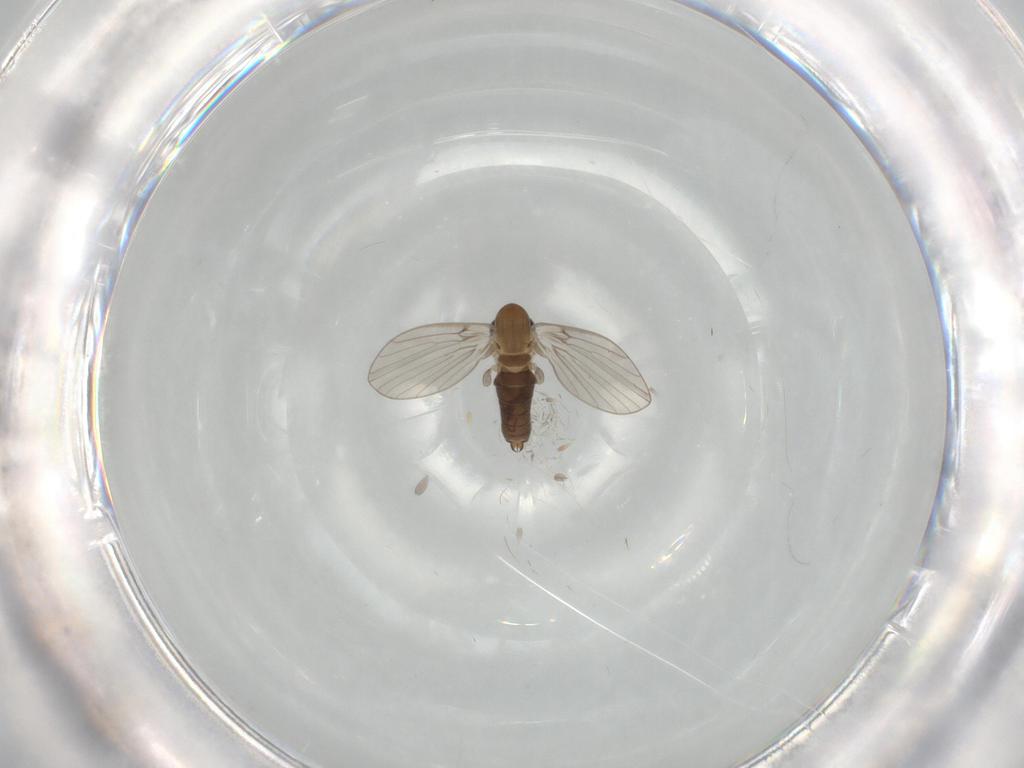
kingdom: Animalia
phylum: Arthropoda
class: Insecta
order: Diptera
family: Psychodidae
